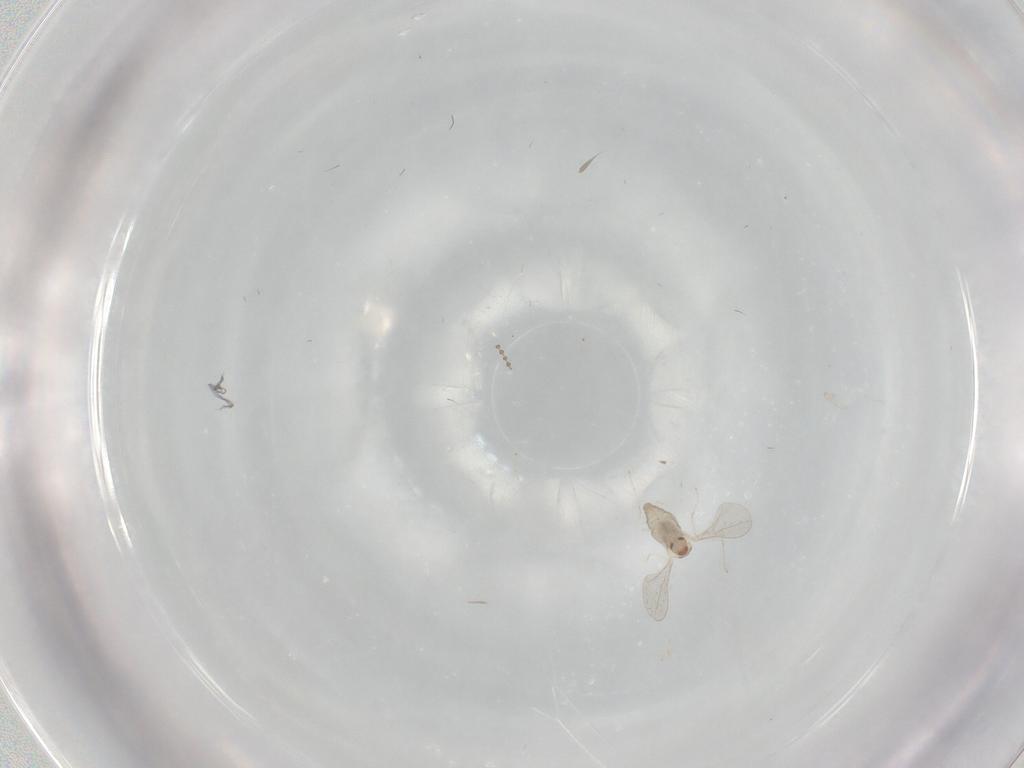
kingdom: Animalia
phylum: Arthropoda
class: Insecta
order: Diptera
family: Cecidomyiidae
